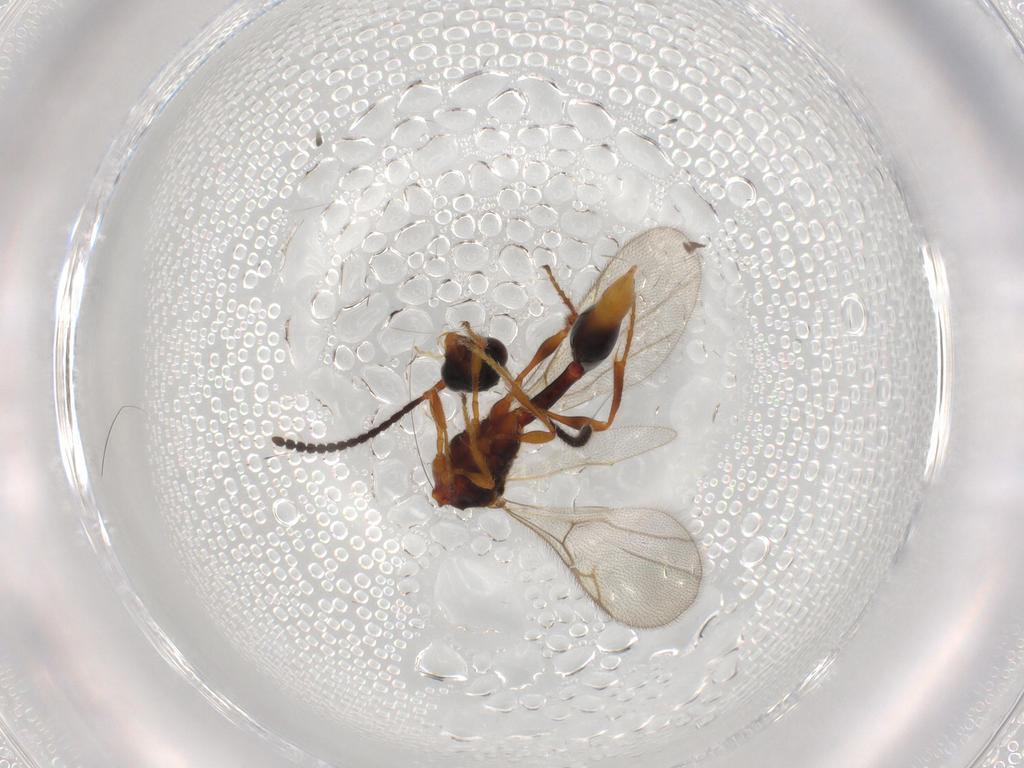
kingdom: Animalia
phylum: Arthropoda
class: Insecta
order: Hymenoptera
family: Diapriidae
